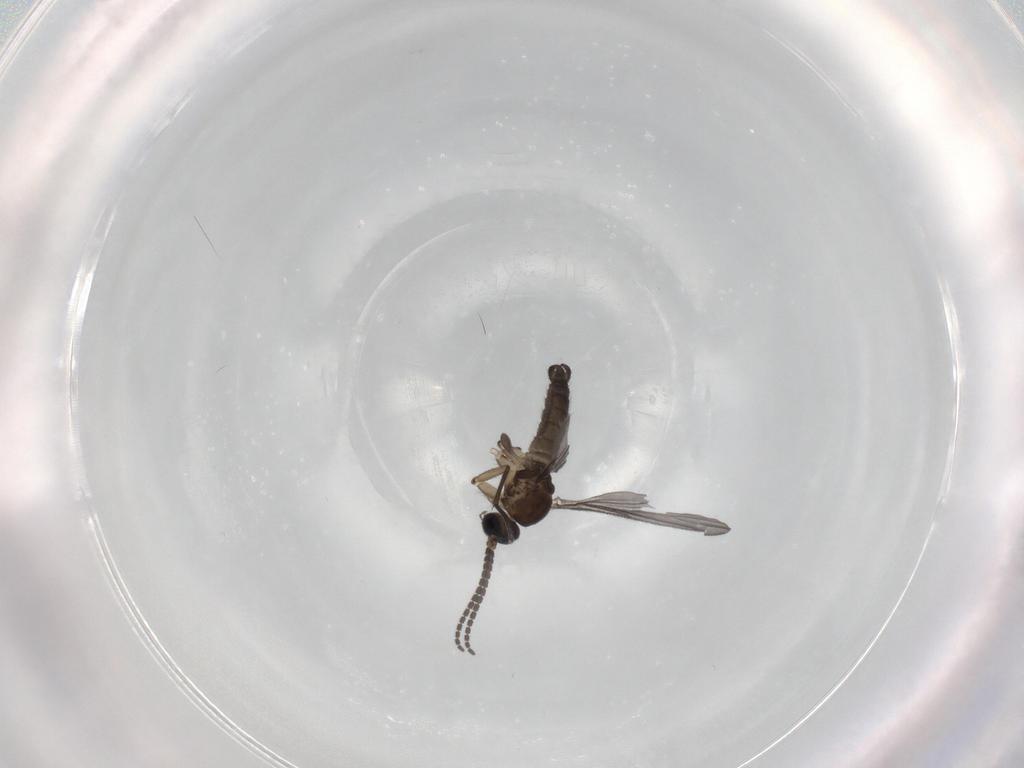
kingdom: Animalia
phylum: Arthropoda
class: Insecta
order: Diptera
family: Sciaridae
